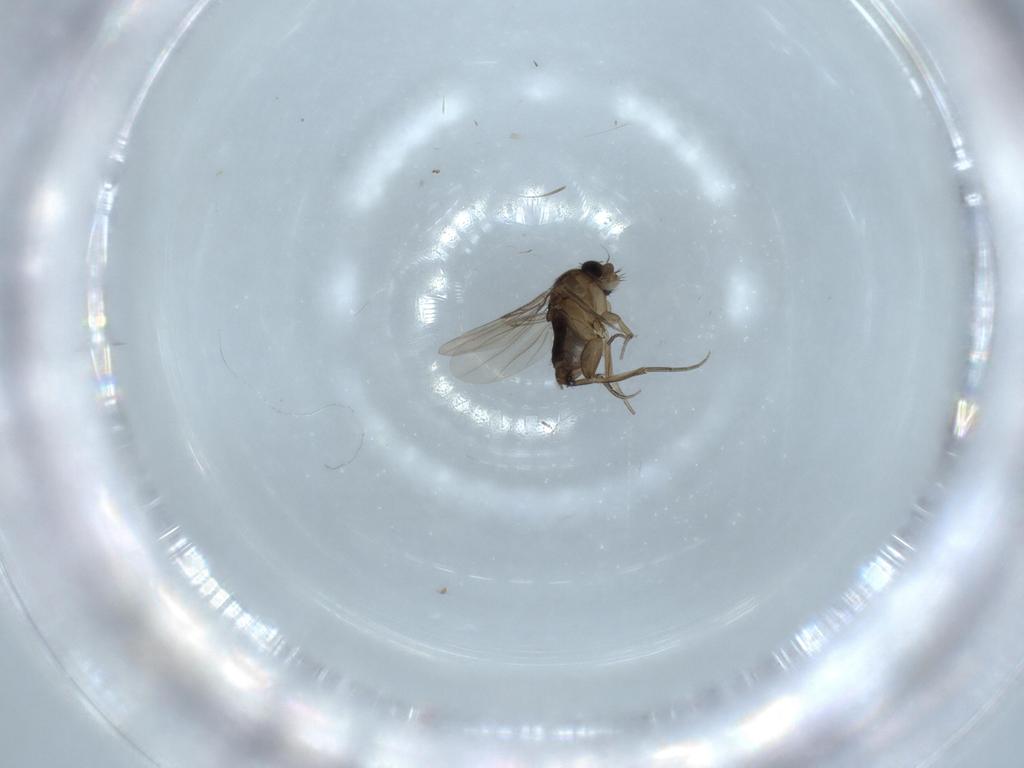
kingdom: Animalia
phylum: Arthropoda
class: Insecta
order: Diptera
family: Phoridae
